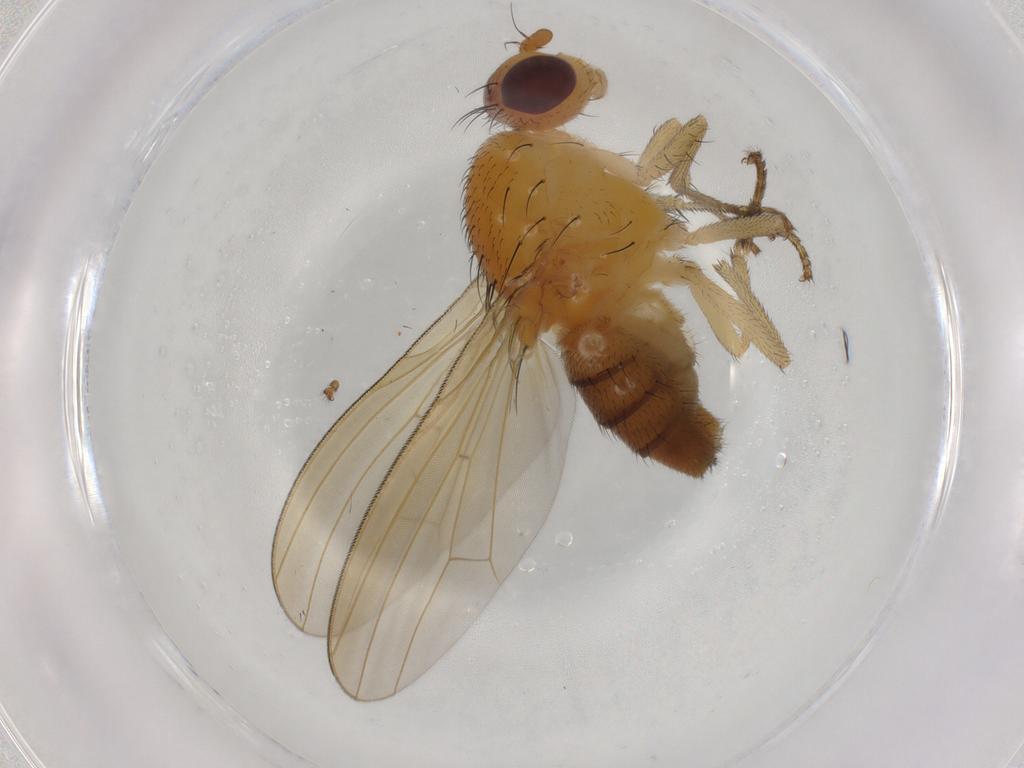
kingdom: Animalia
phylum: Arthropoda
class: Insecta
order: Diptera
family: Lauxaniidae
